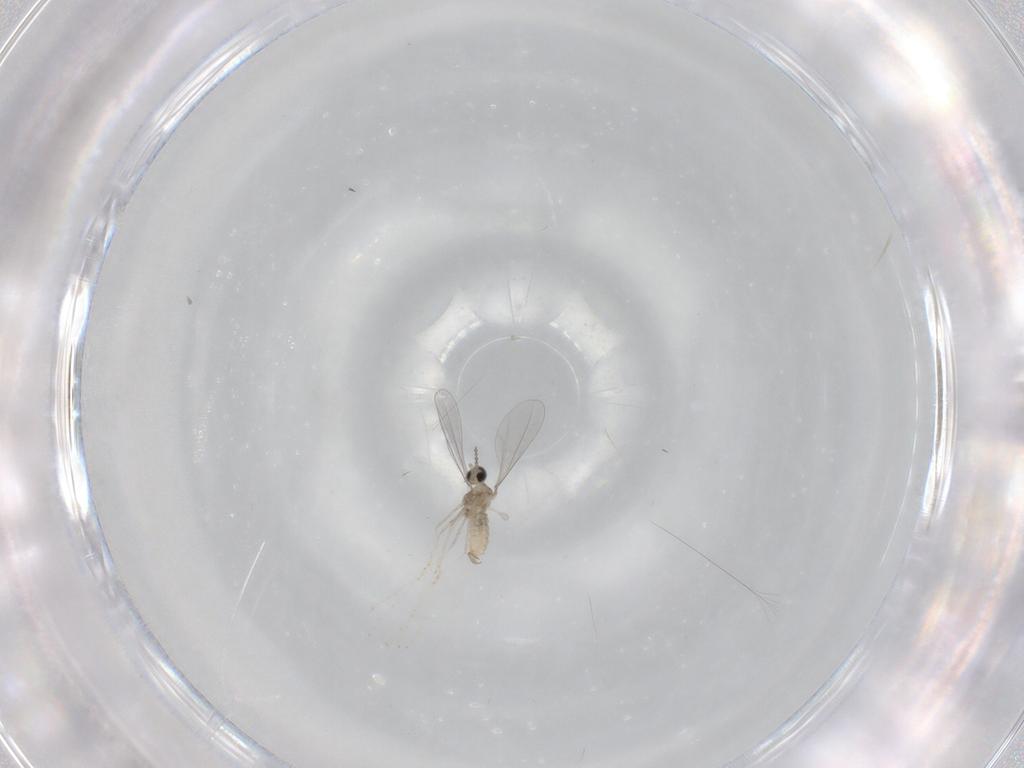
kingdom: Animalia
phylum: Arthropoda
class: Insecta
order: Diptera
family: Cecidomyiidae
